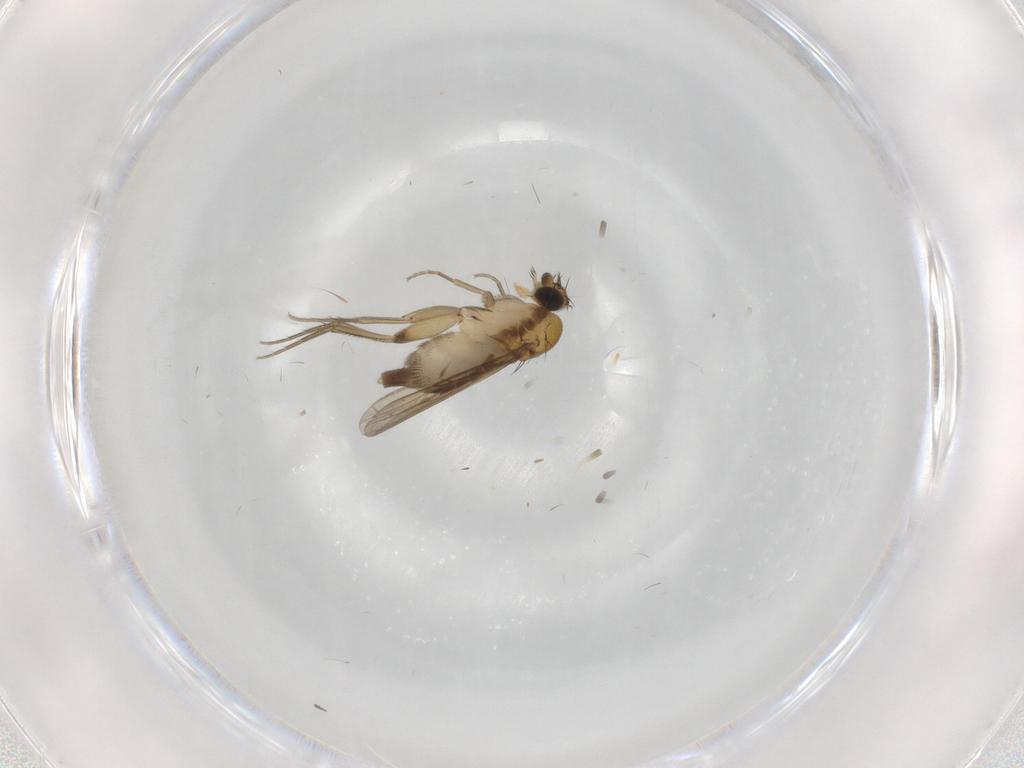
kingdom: Animalia
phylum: Arthropoda
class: Insecta
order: Diptera
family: Phoridae
